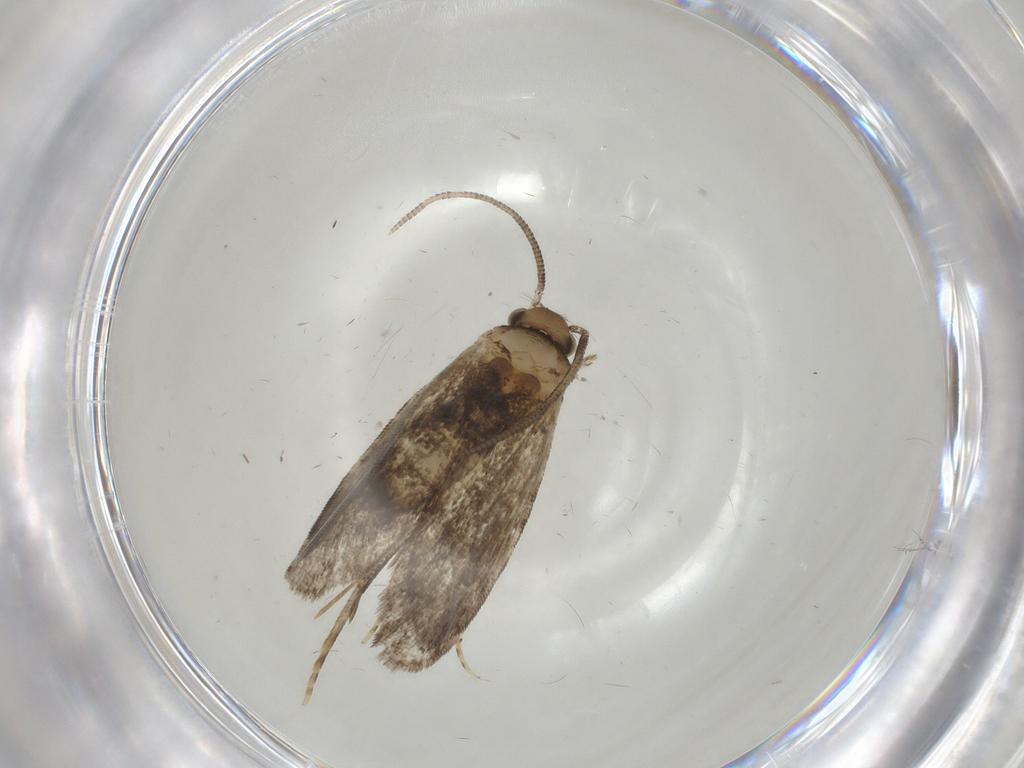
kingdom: Animalia
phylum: Arthropoda
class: Insecta
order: Lepidoptera
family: Dryadaulidae
